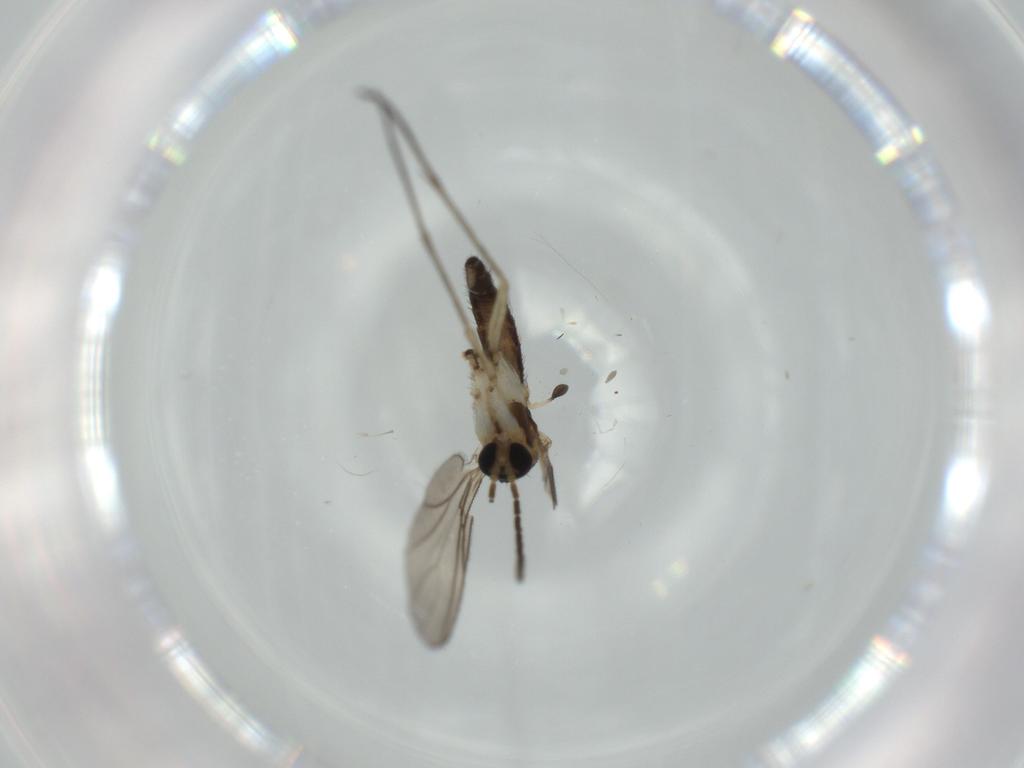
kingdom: Animalia
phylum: Arthropoda
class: Insecta
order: Diptera
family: Sciaridae
